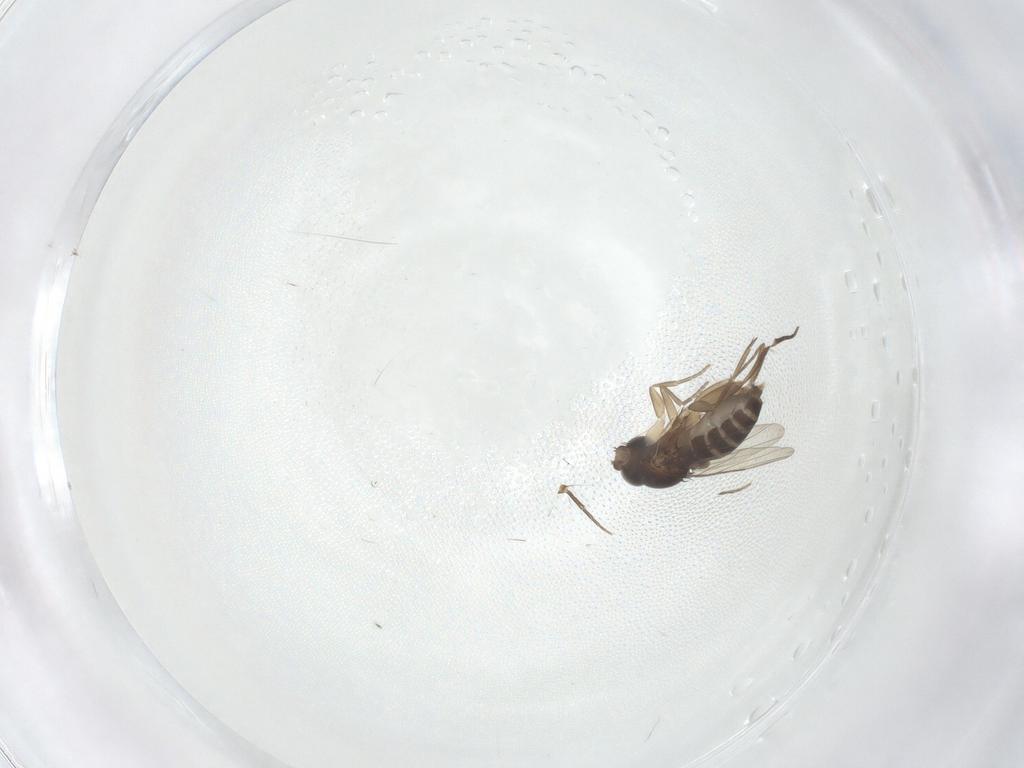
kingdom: Animalia
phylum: Arthropoda
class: Insecta
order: Diptera
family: Phoridae
